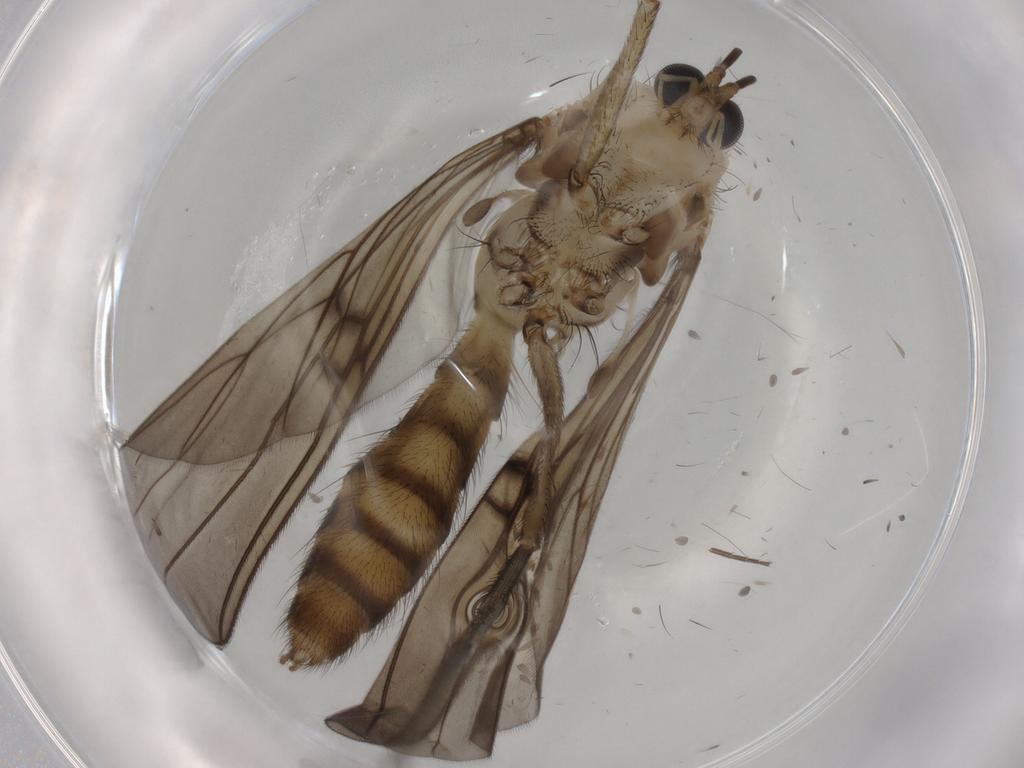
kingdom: Animalia
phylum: Arthropoda
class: Insecta
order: Diptera
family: Mycetophilidae
